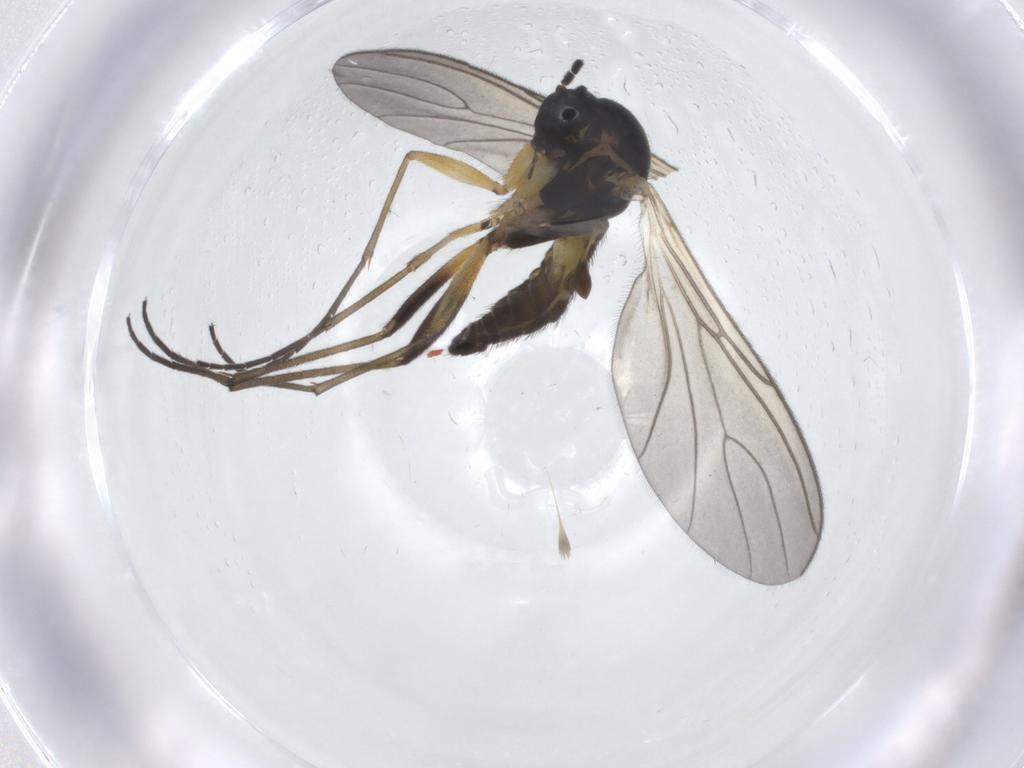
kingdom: Animalia
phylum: Arthropoda
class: Insecta
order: Diptera
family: Sciaridae
